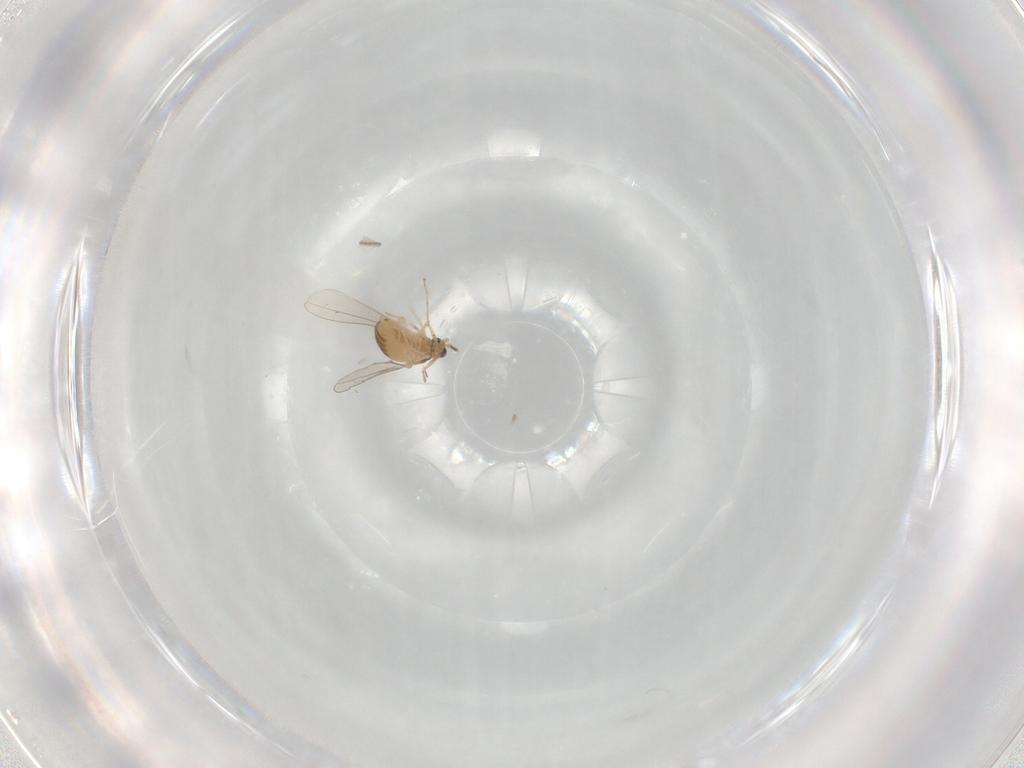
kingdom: Animalia
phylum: Arthropoda
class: Insecta
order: Diptera
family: Cecidomyiidae
